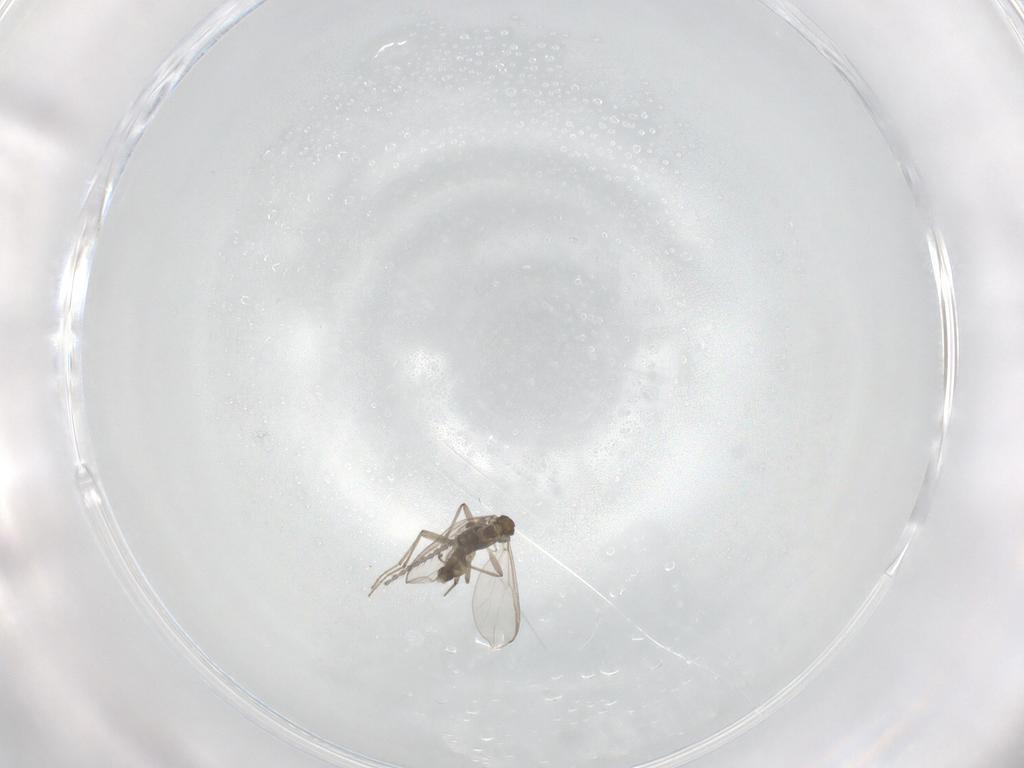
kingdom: Animalia
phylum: Arthropoda
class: Insecta
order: Diptera
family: Chironomidae
